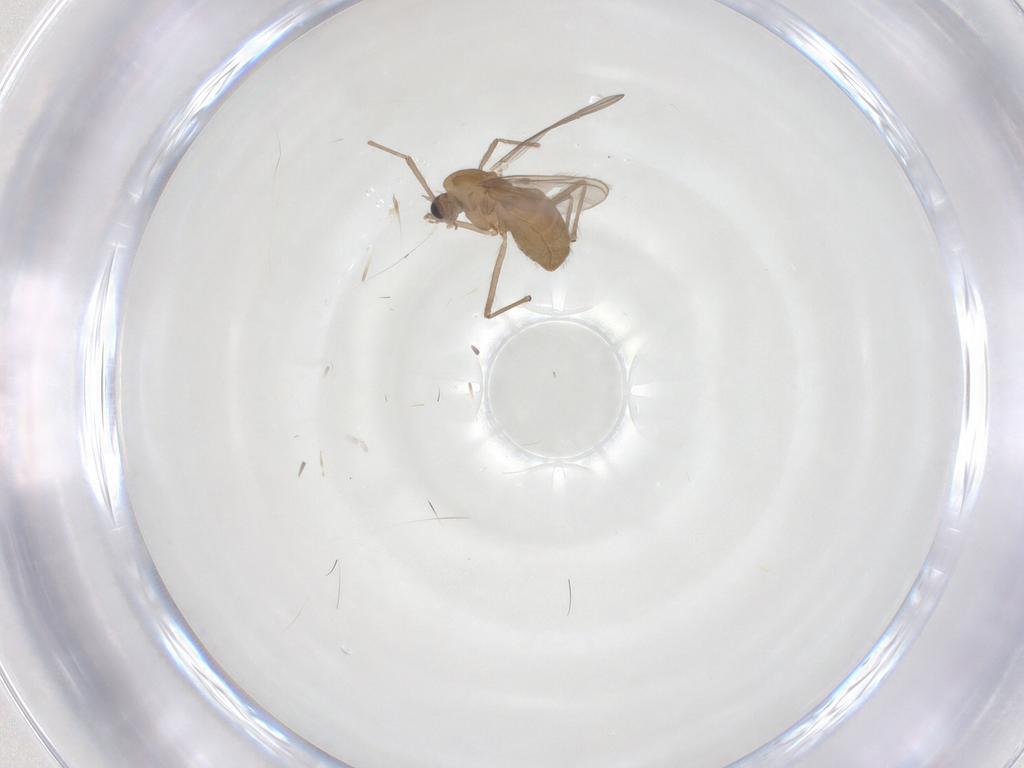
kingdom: Animalia
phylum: Arthropoda
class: Insecta
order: Diptera
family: Chironomidae
